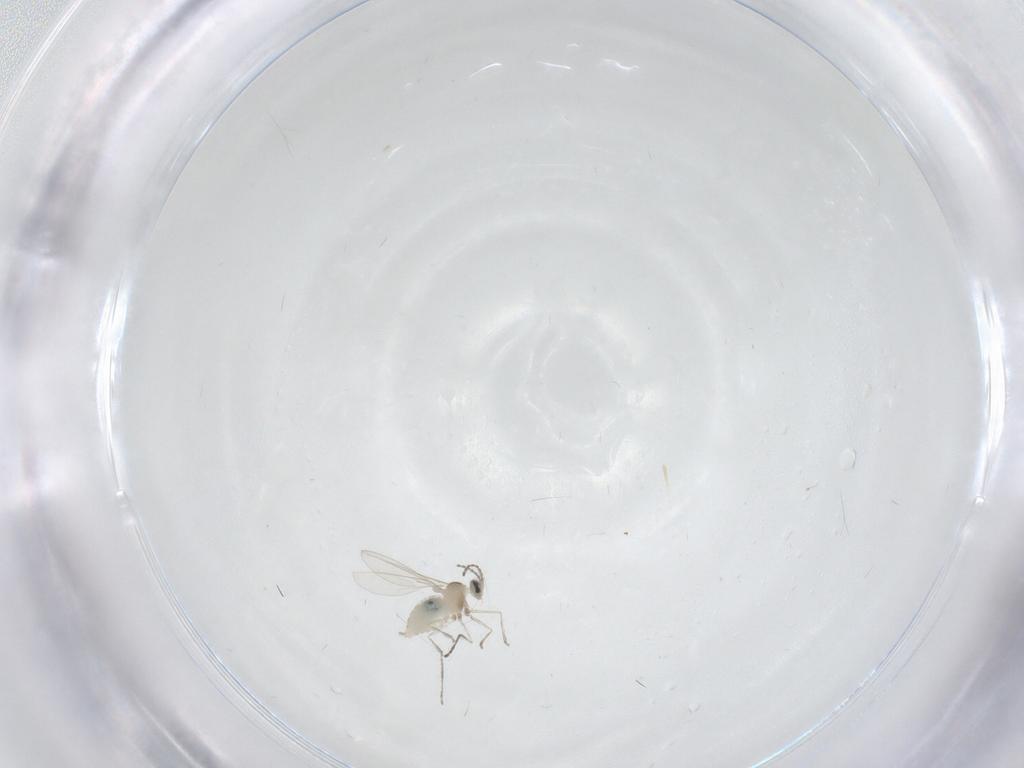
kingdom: Animalia
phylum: Arthropoda
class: Insecta
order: Diptera
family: Cecidomyiidae
